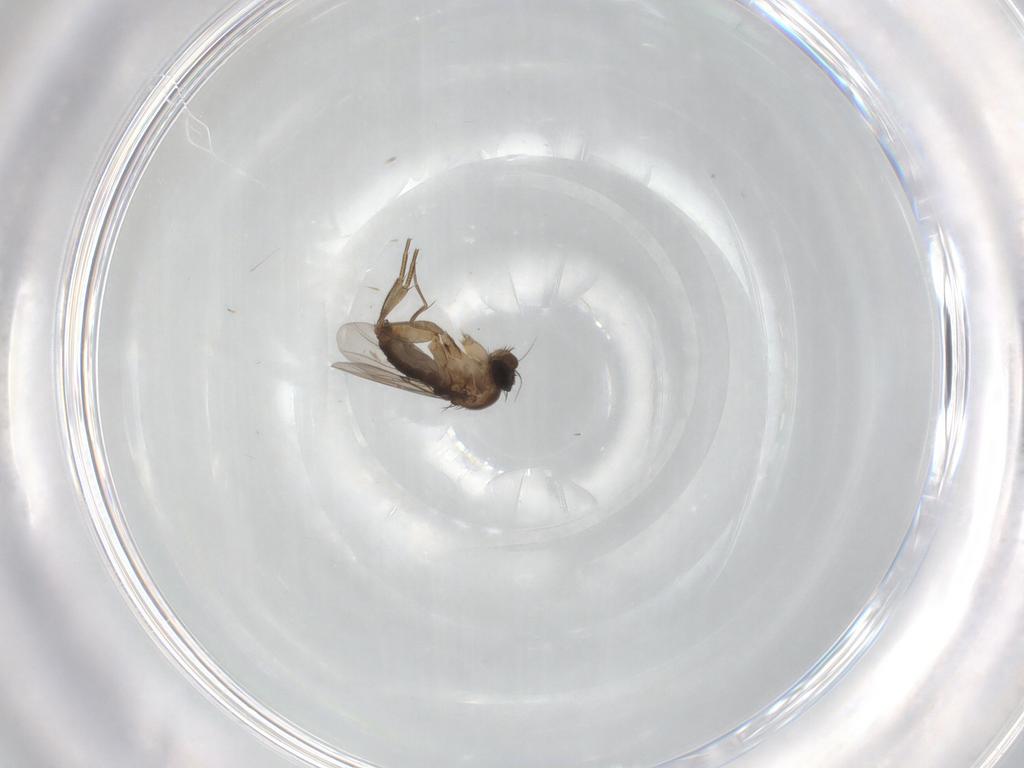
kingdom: Animalia
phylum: Arthropoda
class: Insecta
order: Diptera
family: Phoridae
